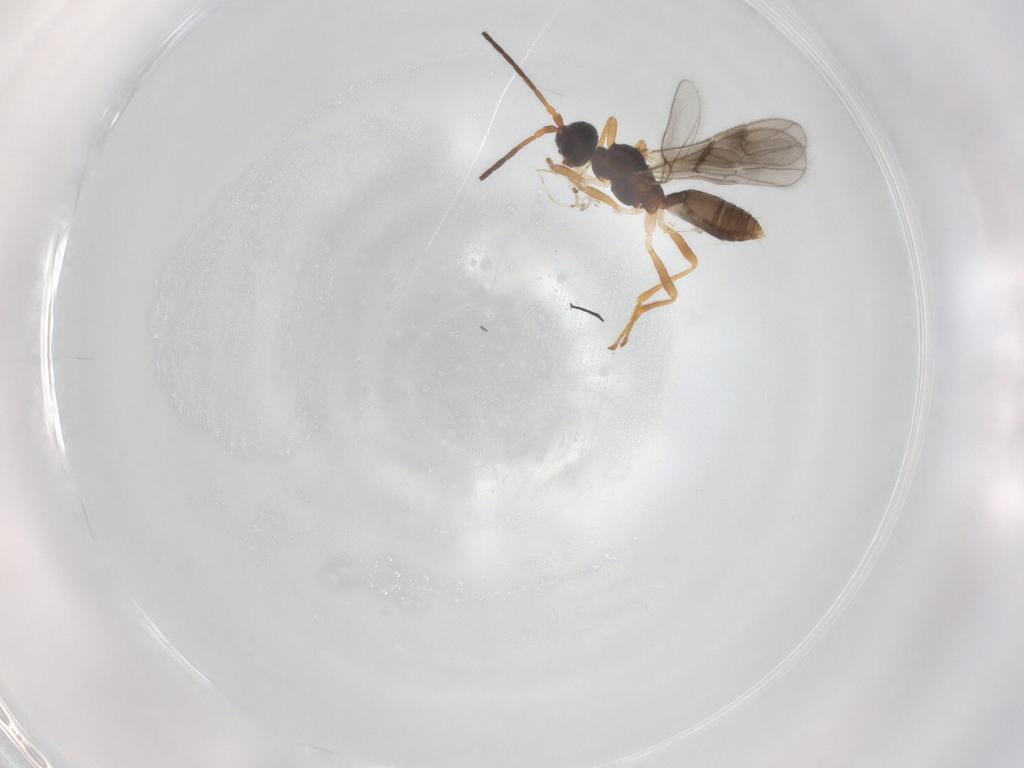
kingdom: Animalia
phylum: Arthropoda
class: Insecta
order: Hymenoptera
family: Braconidae
